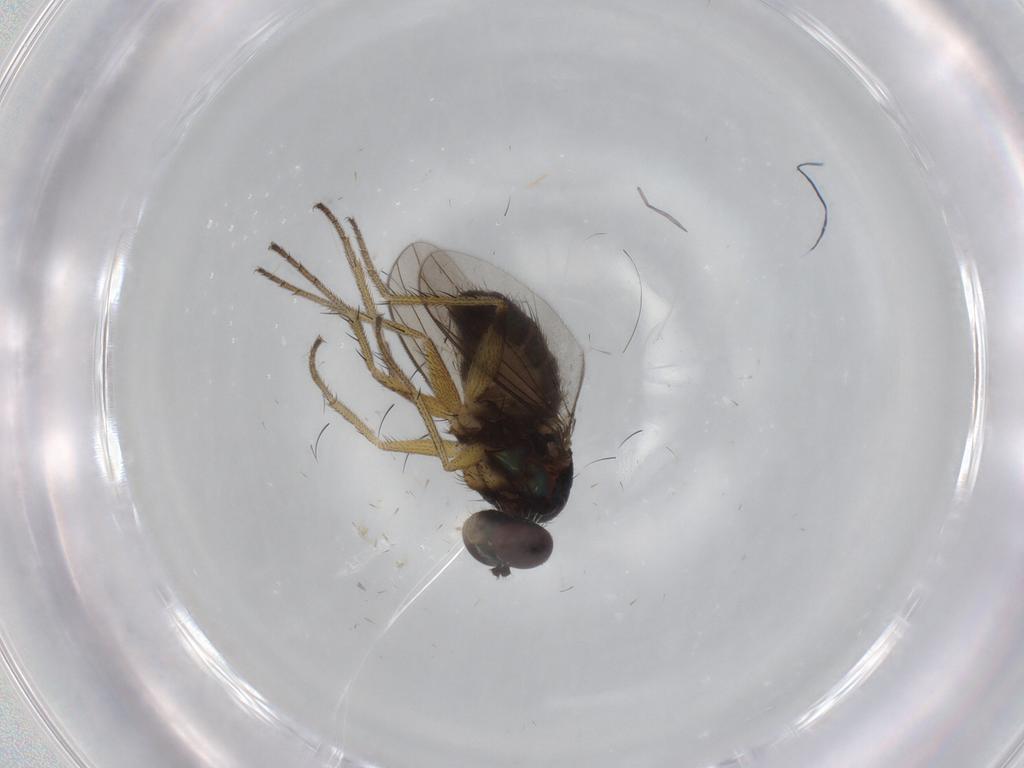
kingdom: Animalia
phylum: Arthropoda
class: Insecta
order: Diptera
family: Dolichopodidae
